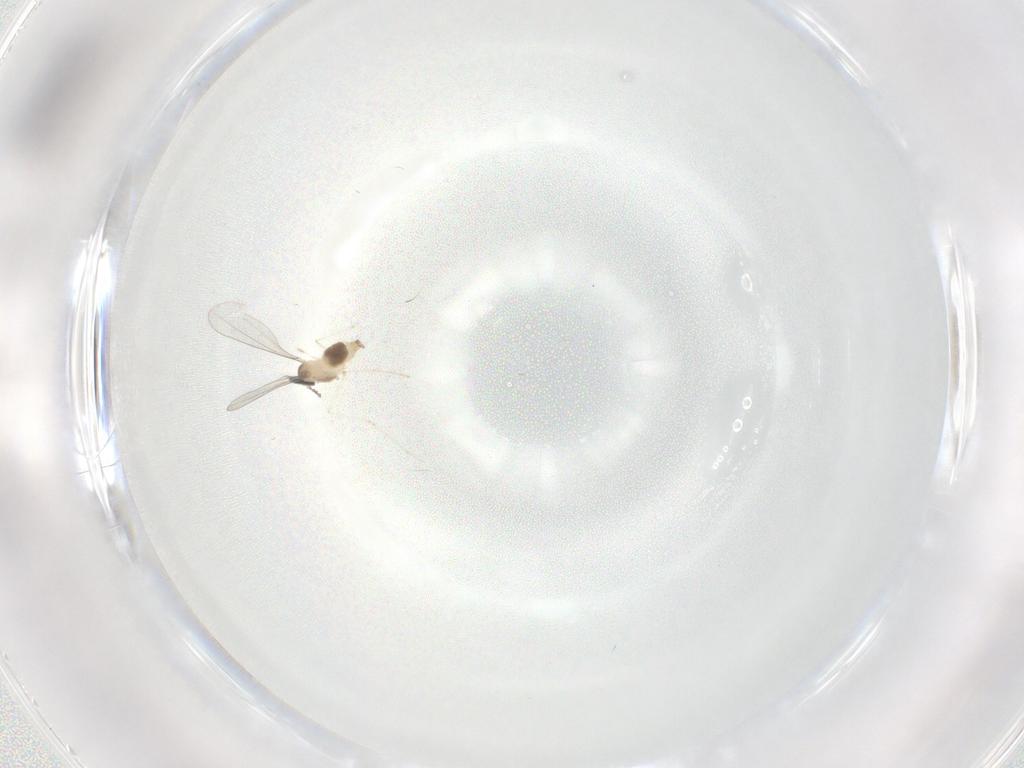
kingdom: Animalia
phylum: Arthropoda
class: Insecta
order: Diptera
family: Cecidomyiidae
